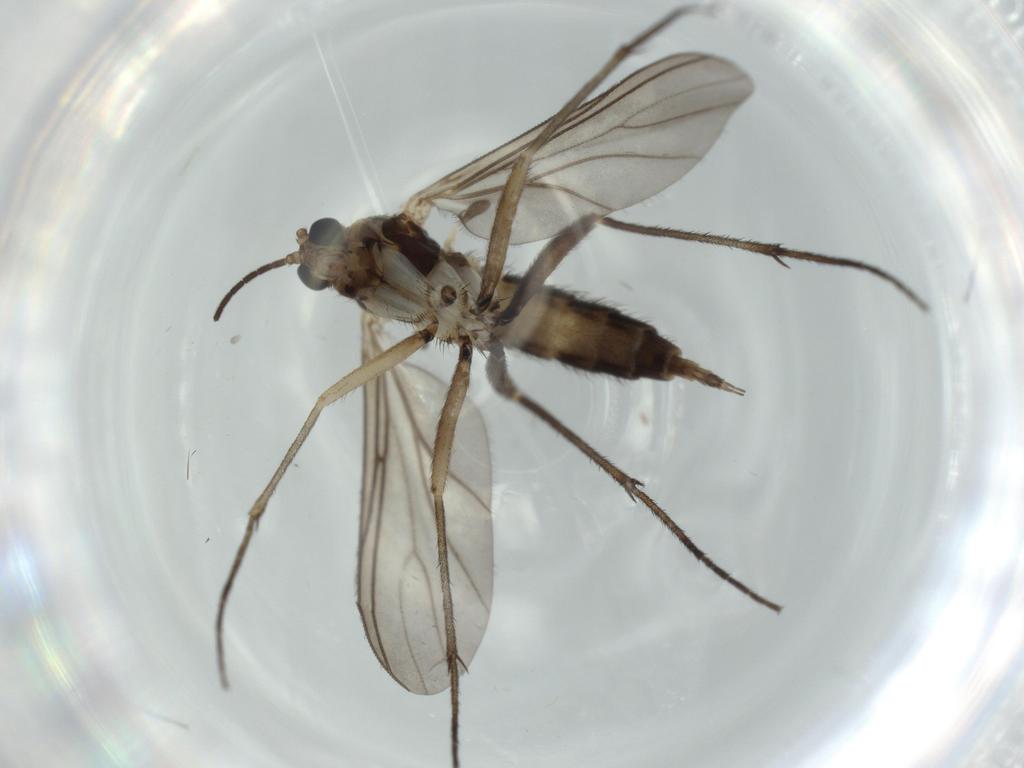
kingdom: Animalia
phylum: Arthropoda
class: Insecta
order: Diptera
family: Sciaridae
